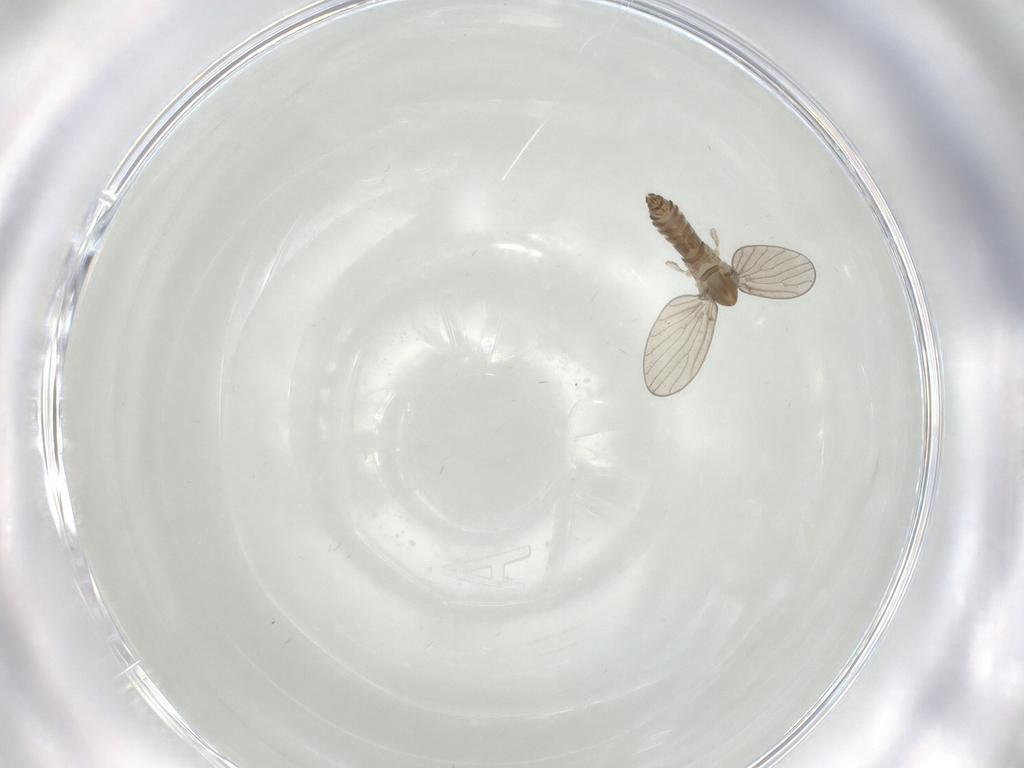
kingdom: Animalia
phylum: Arthropoda
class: Insecta
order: Diptera
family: Psychodidae
